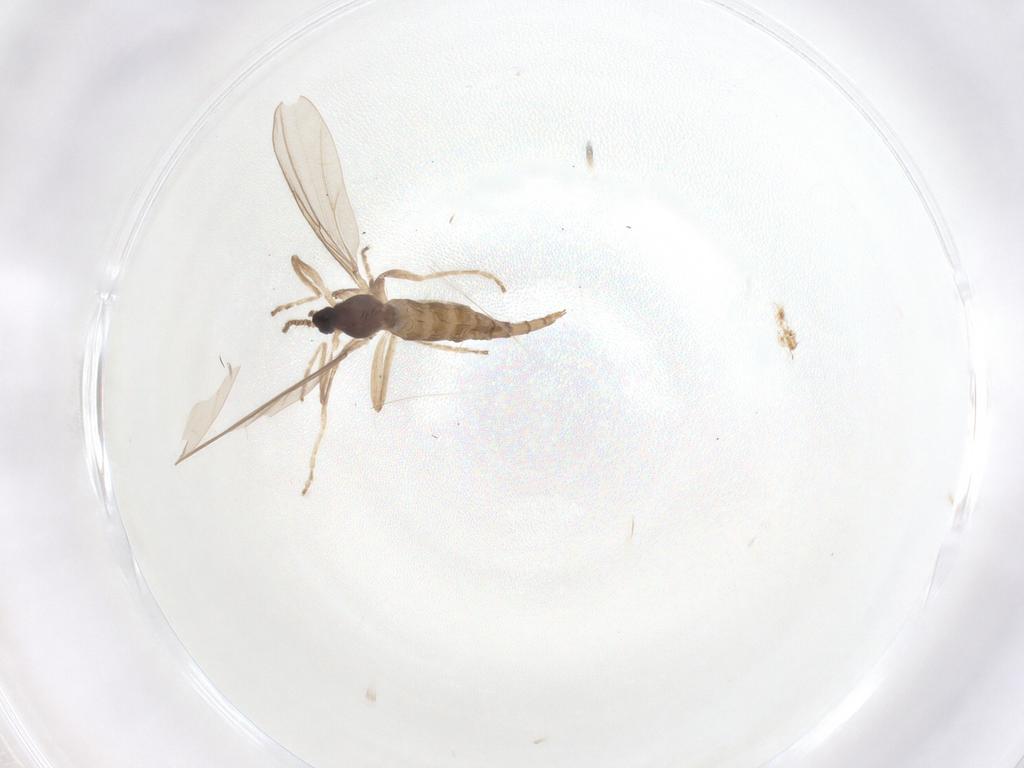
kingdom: Animalia
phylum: Arthropoda
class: Insecta
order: Diptera
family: Cecidomyiidae
